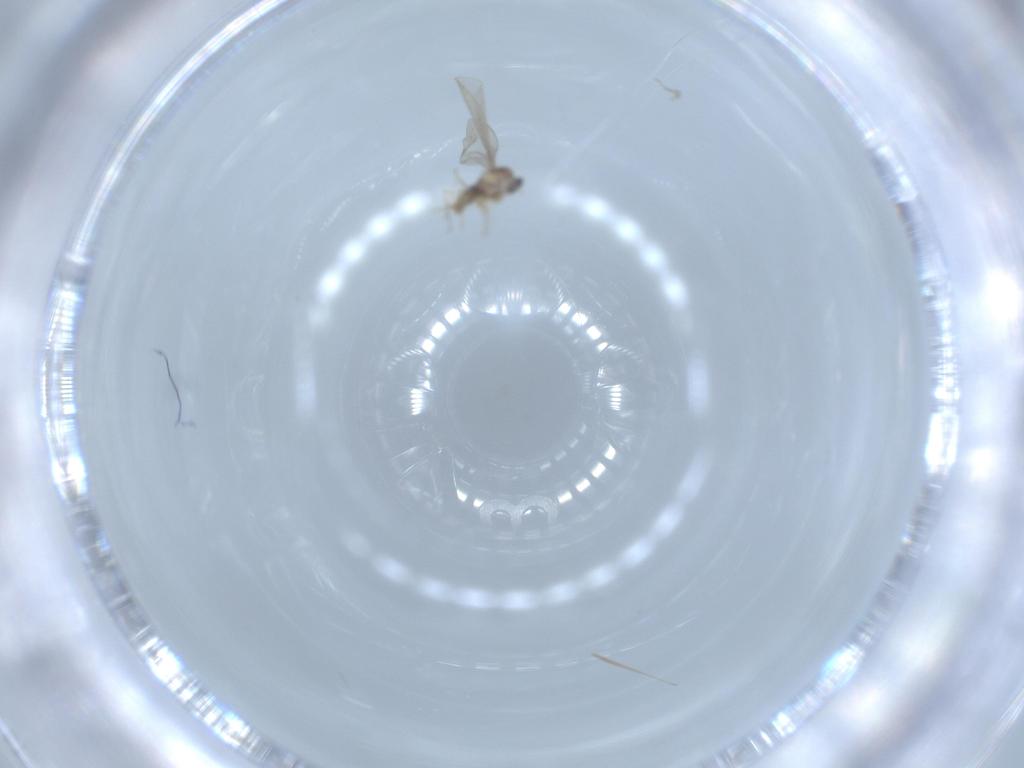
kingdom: Animalia
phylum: Arthropoda
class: Insecta
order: Diptera
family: Cecidomyiidae
